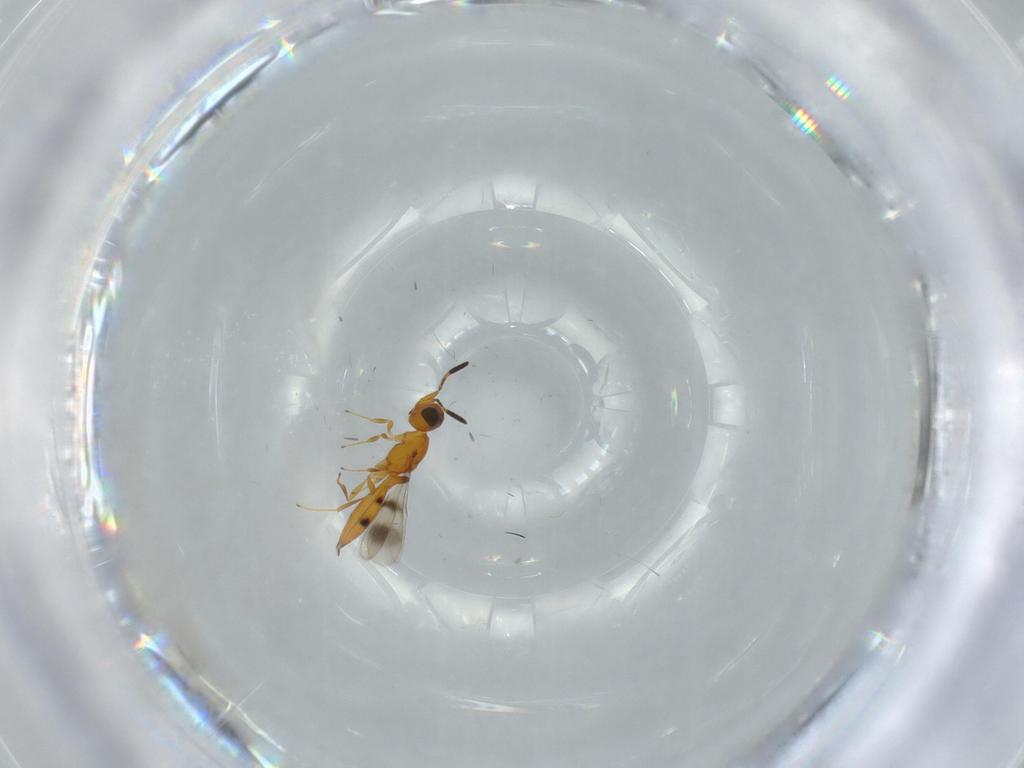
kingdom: Animalia
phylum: Arthropoda
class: Insecta
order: Hymenoptera
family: Scelionidae
